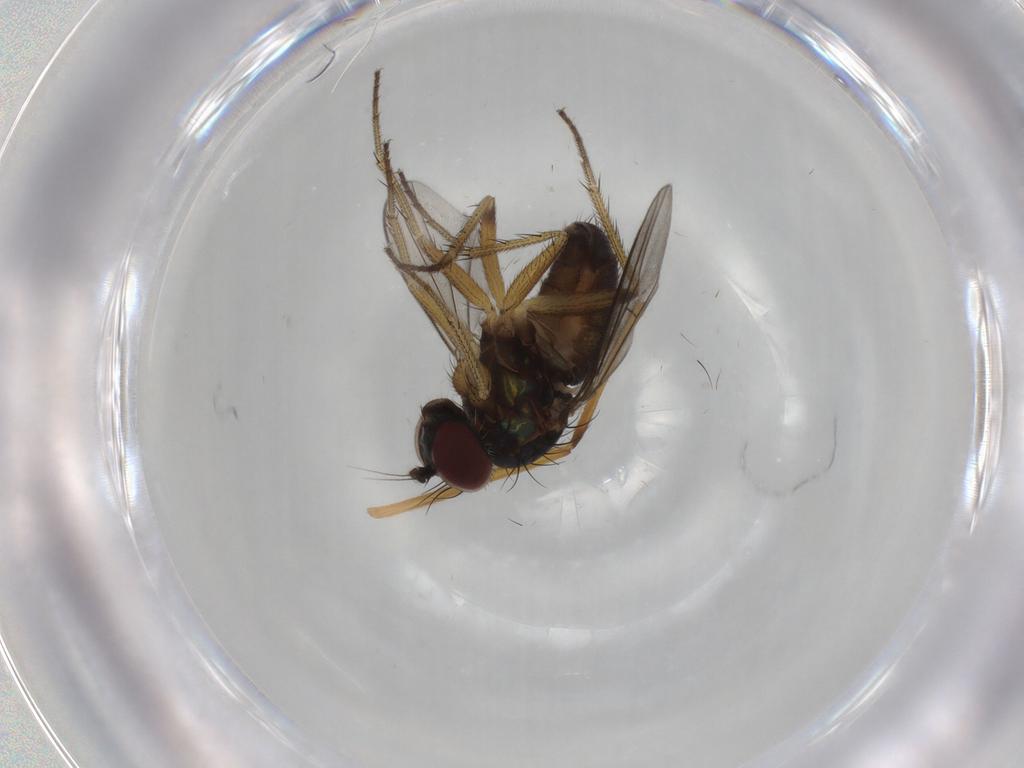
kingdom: Animalia
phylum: Arthropoda
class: Insecta
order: Diptera
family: Dolichopodidae
